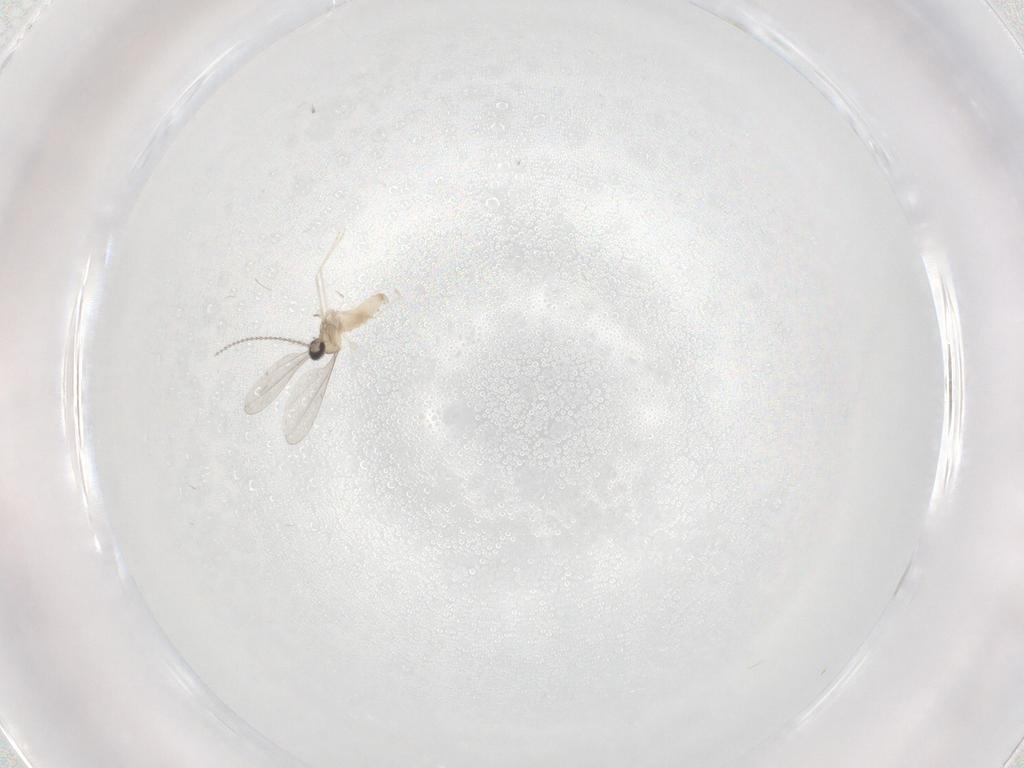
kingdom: Animalia
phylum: Arthropoda
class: Insecta
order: Diptera
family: Cecidomyiidae
